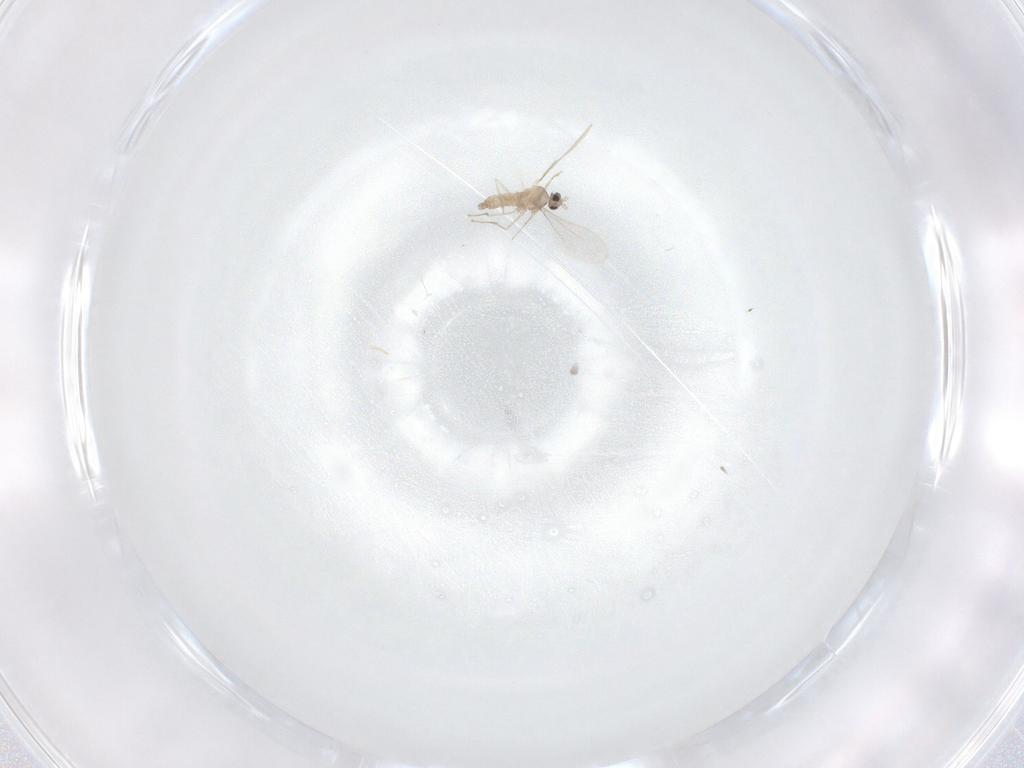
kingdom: Animalia
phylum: Arthropoda
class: Insecta
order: Diptera
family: Cecidomyiidae
